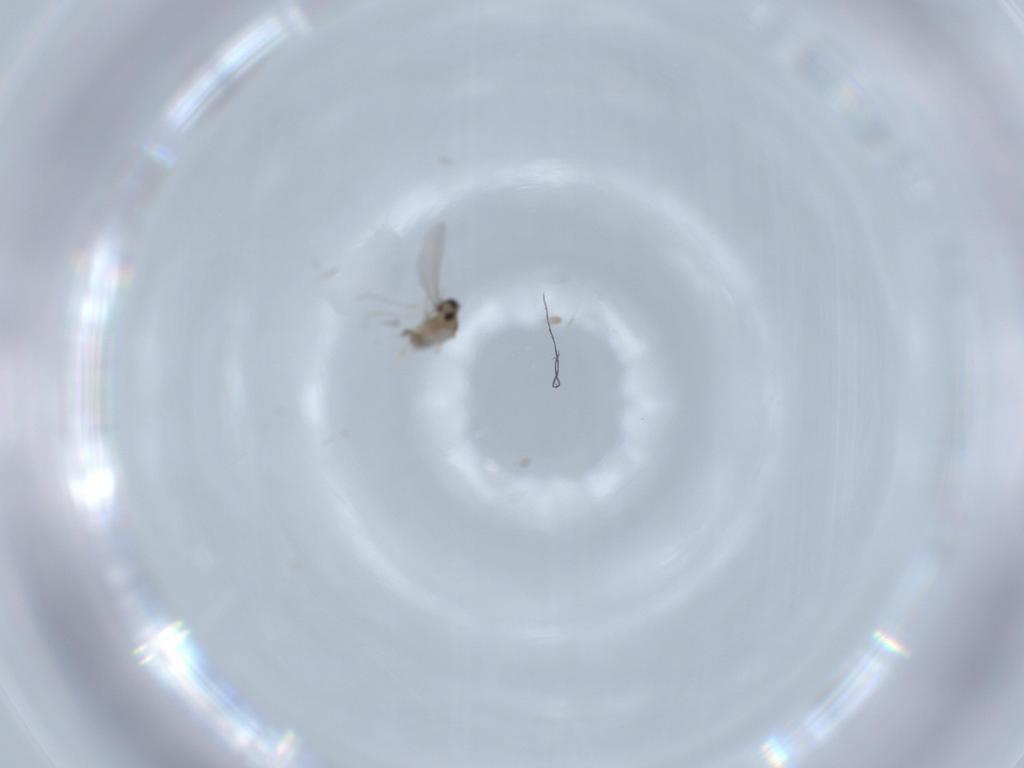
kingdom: Animalia
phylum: Arthropoda
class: Insecta
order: Diptera
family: Cecidomyiidae
